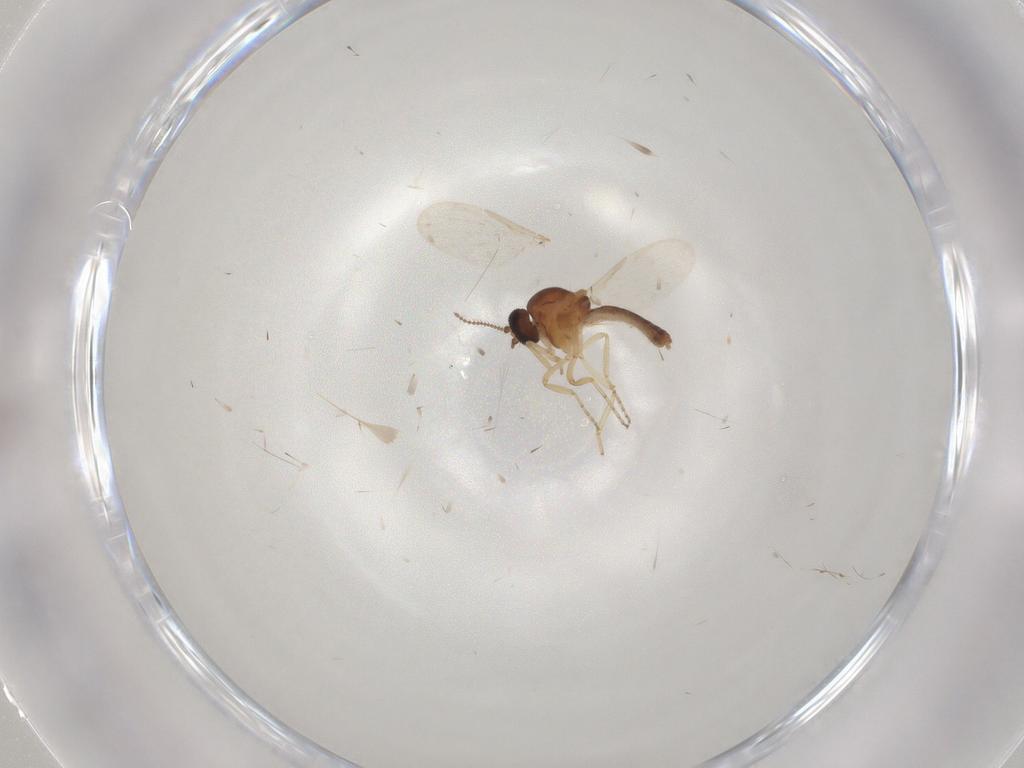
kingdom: Animalia
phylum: Arthropoda
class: Insecta
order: Diptera
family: Ceratopogonidae
